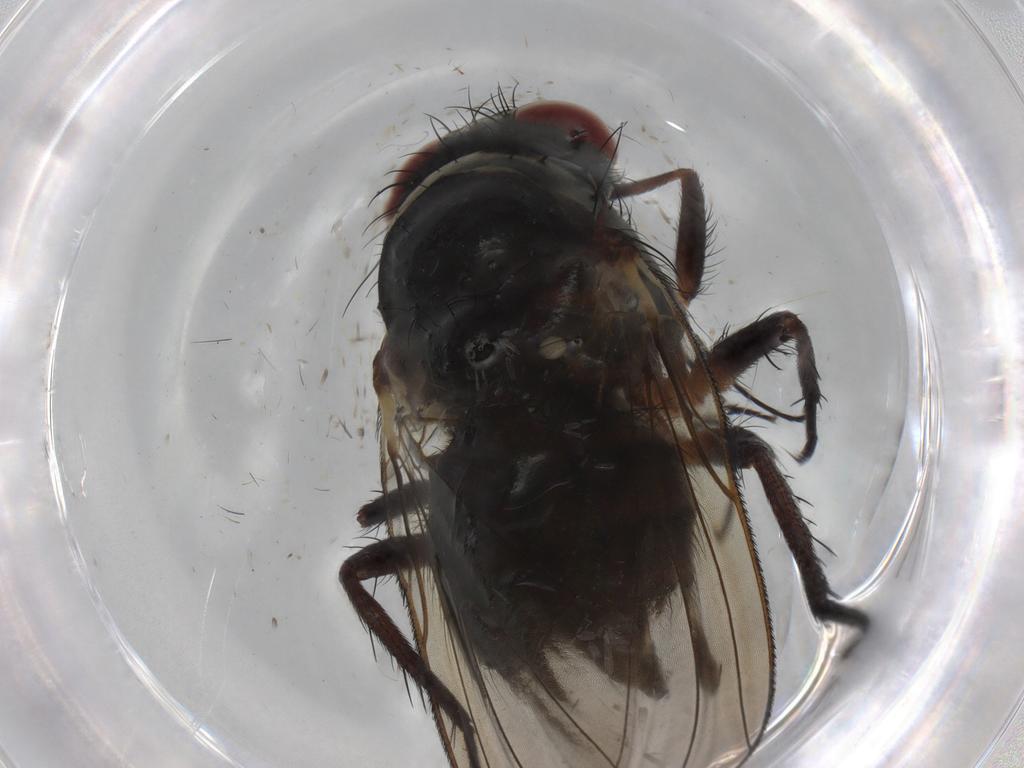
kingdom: Animalia
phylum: Arthropoda
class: Insecta
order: Diptera
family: Anthomyiidae
